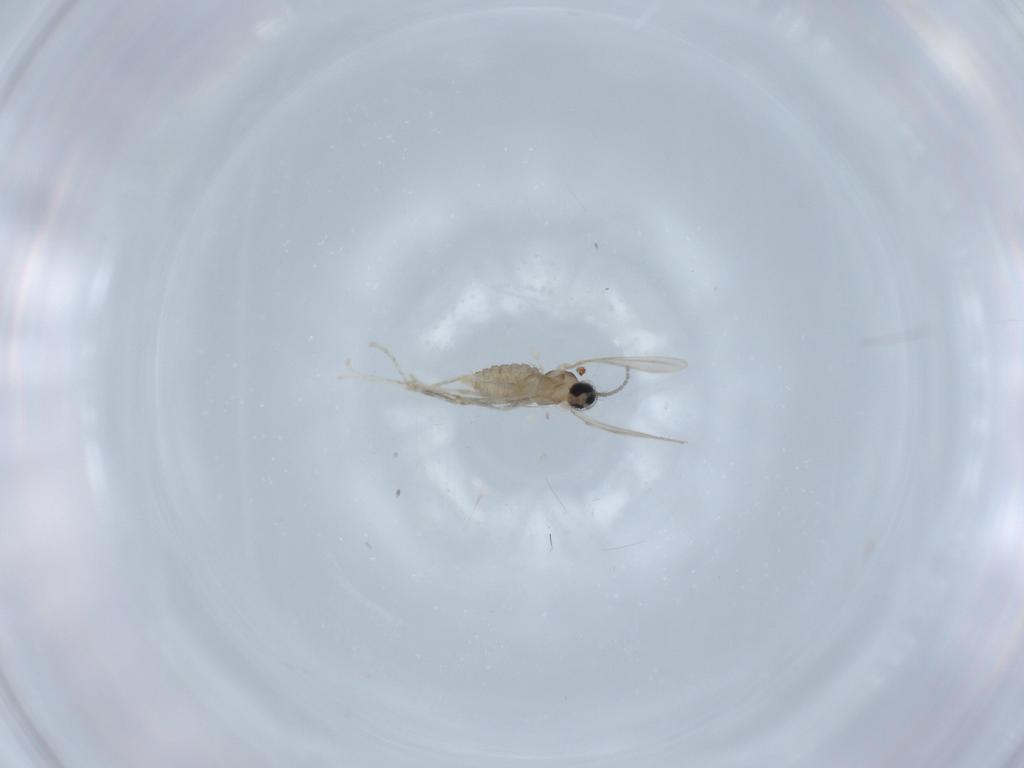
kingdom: Animalia
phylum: Arthropoda
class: Insecta
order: Diptera
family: Cecidomyiidae
